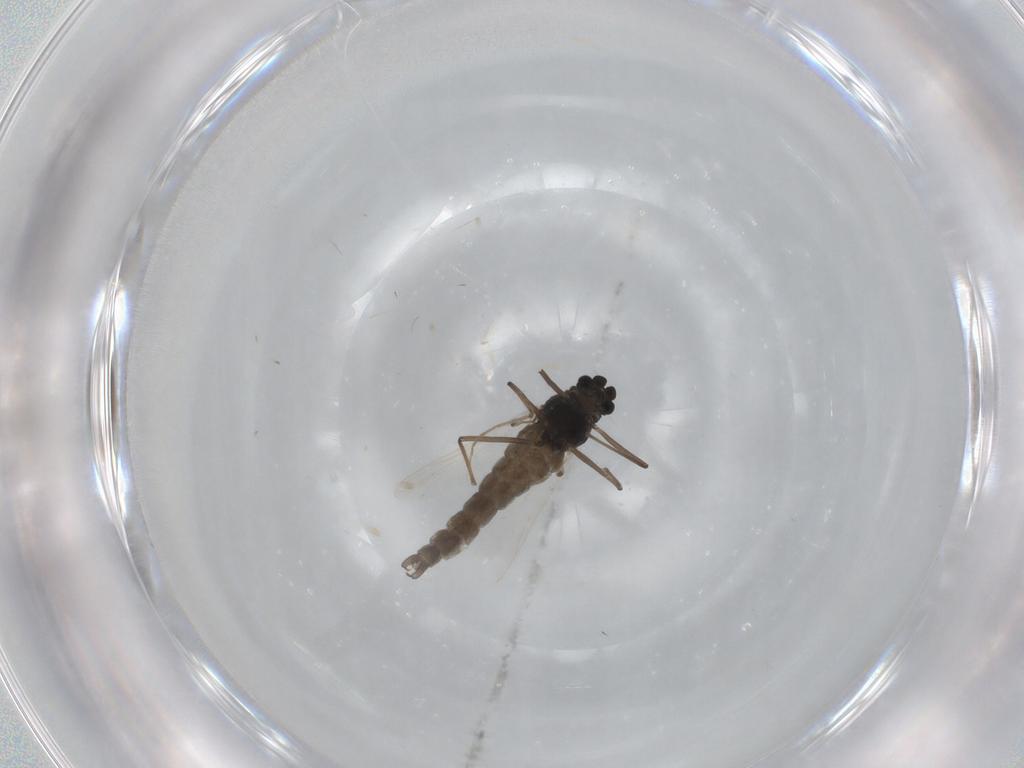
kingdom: Animalia
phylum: Arthropoda
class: Insecta
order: Diptera
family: Chironomidae
